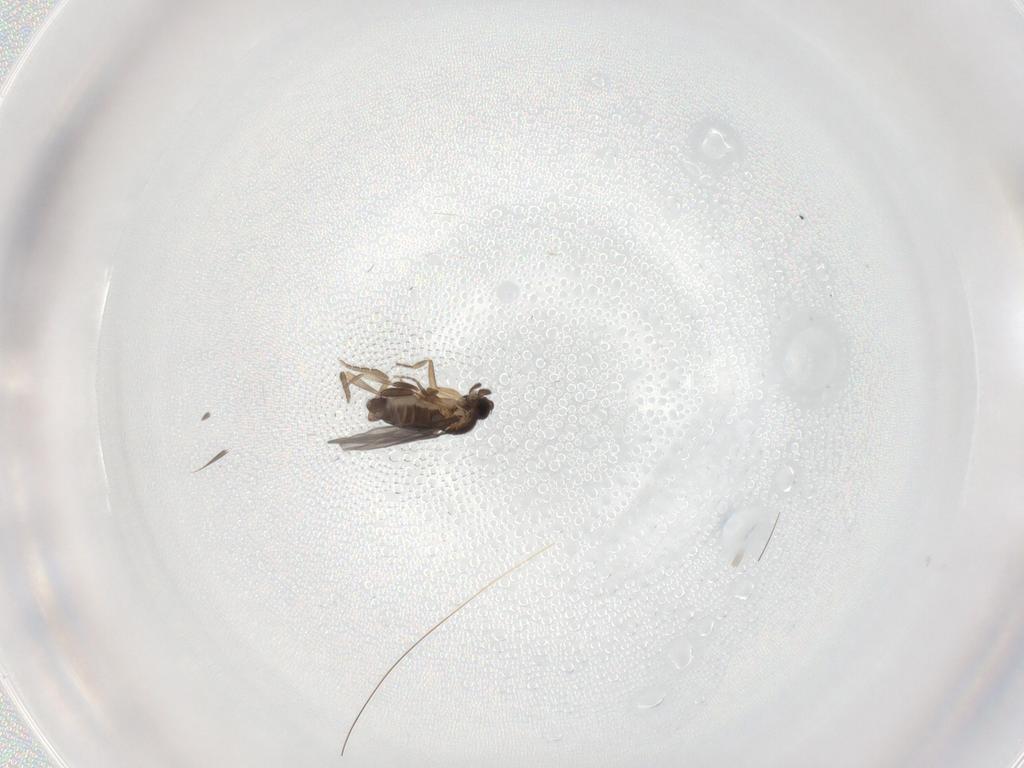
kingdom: Animalia
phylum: Arthropoda
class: Insecta
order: Diptera
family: Dolichopodidae
